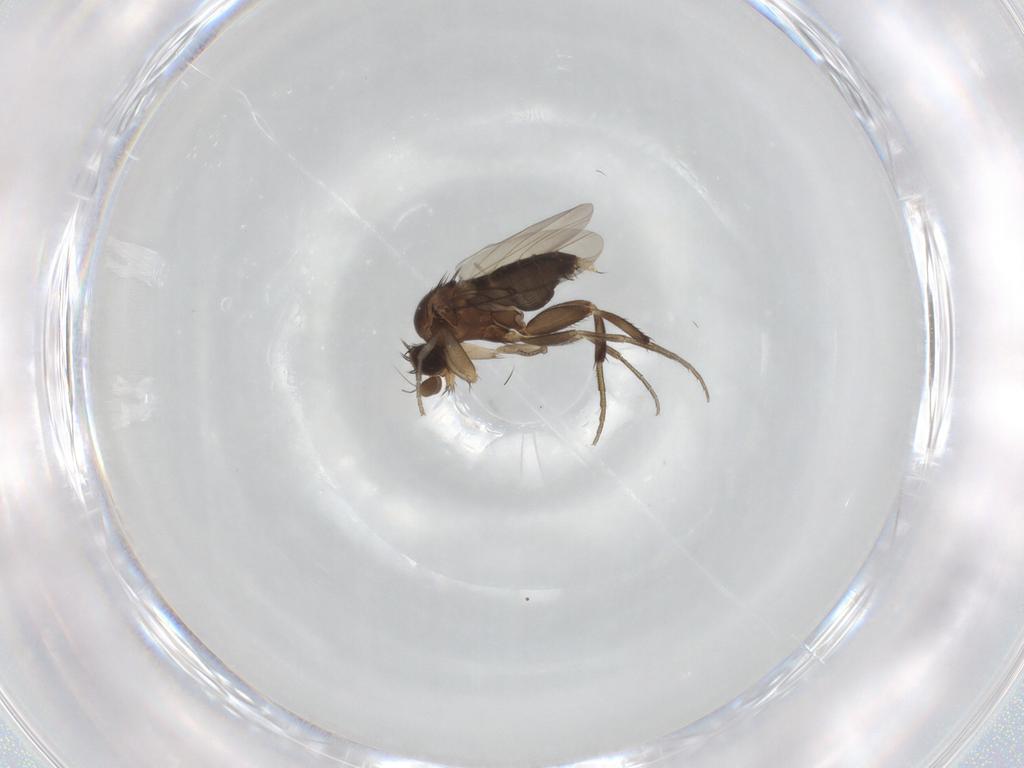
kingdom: Animalia
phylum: Arthropoda
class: Insecta
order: Diptera
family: Phoridae
